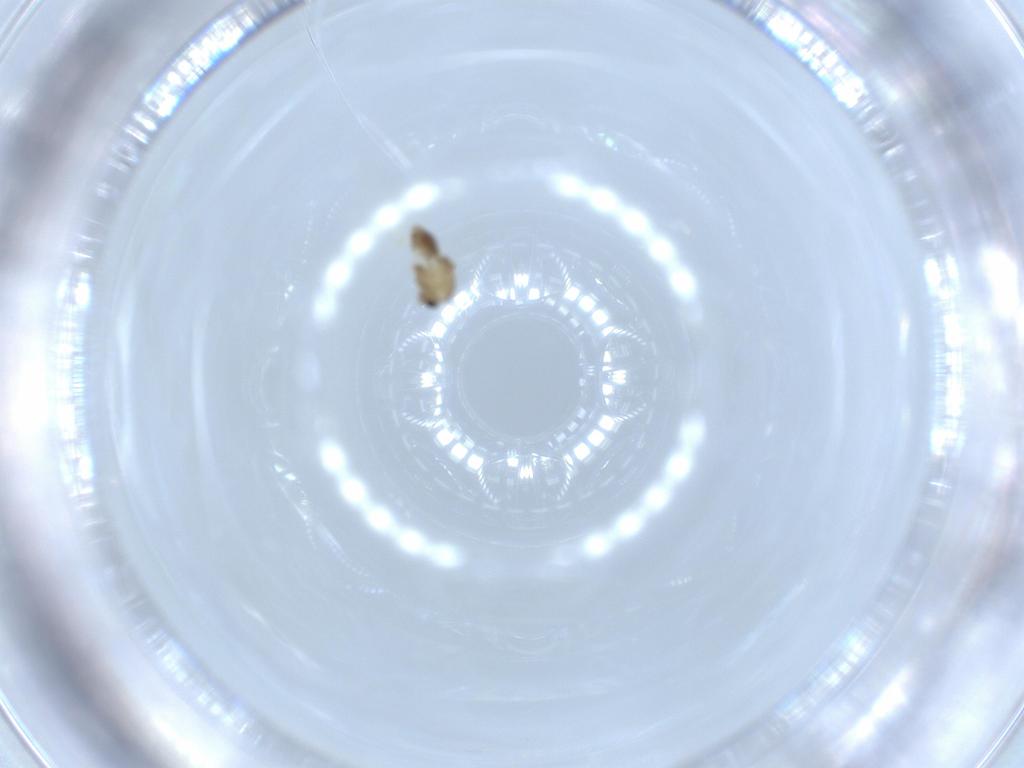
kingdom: Animalia
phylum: Arthropoda
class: Insecta
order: Diptera
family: Chironomidae
